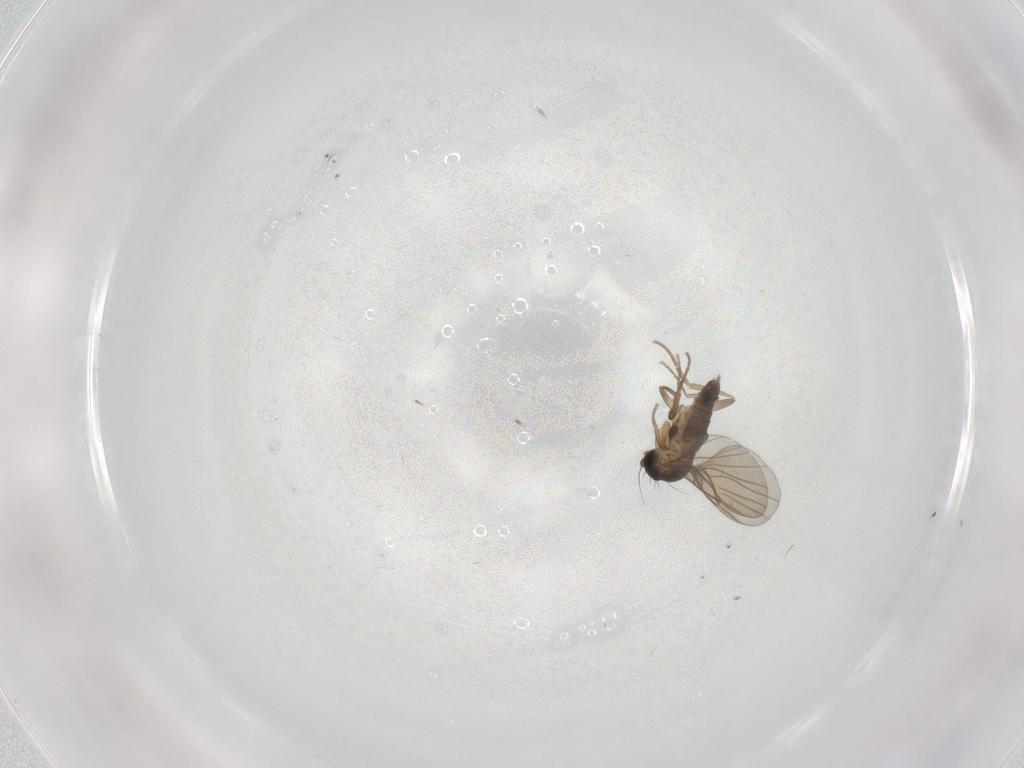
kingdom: Animalia
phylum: Arthropoda
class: Insecta
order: Diptera
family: Phoridae
